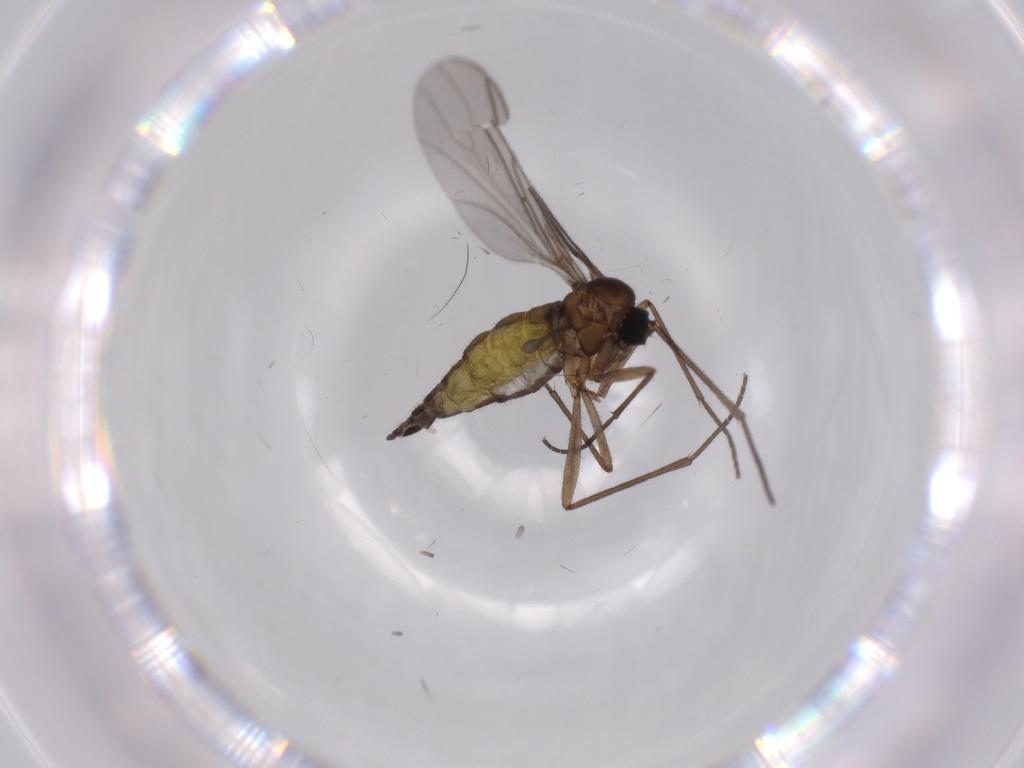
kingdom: Animalia
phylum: Arthropoda
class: Insecta
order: Diptera
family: Sciaridae
